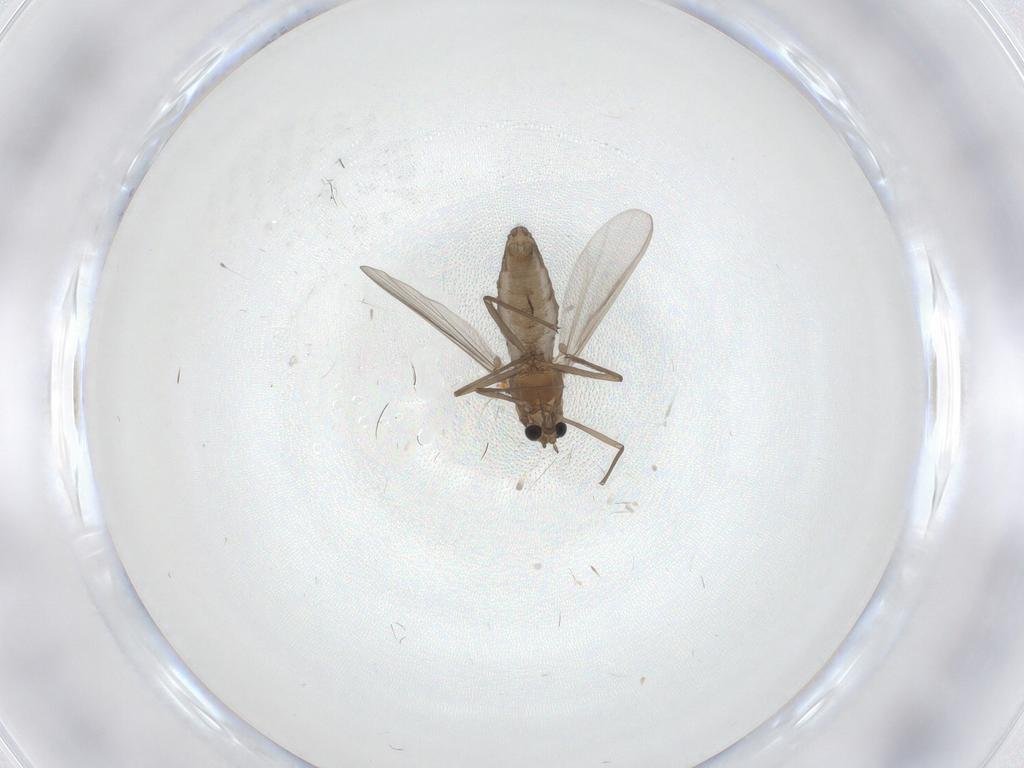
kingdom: Animalia
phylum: Arthropoda
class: Insecta
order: Diptera
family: Chironomidae
